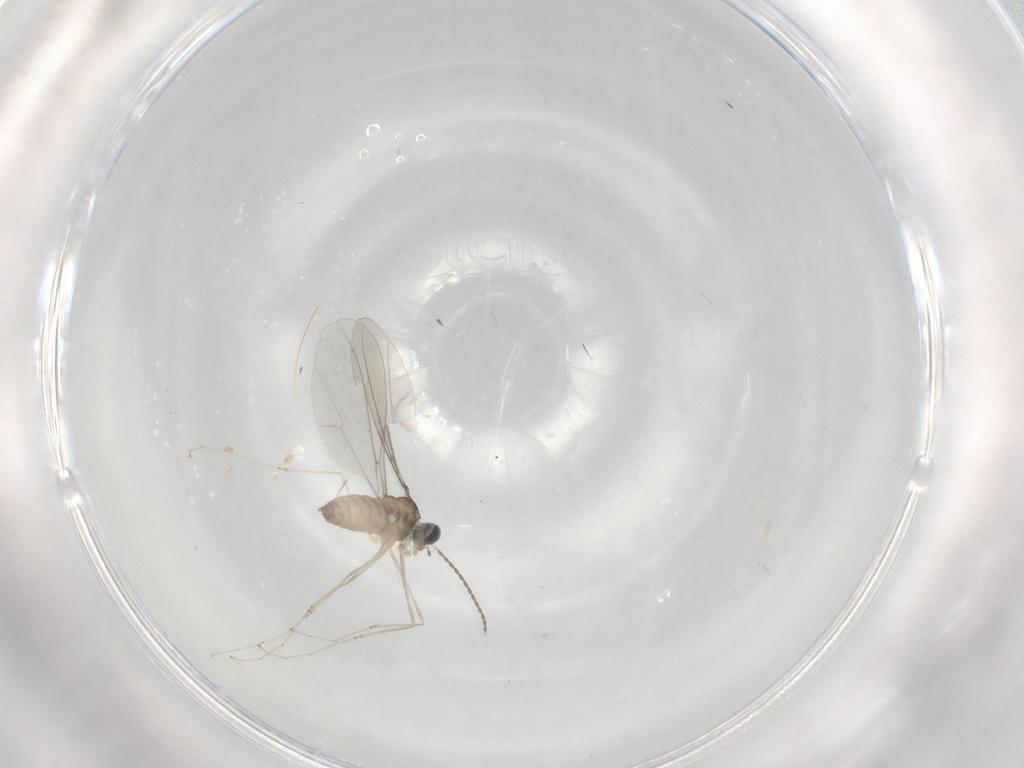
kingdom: Animalia
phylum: Arthropoda
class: Insecta
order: Diptera
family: Cecidomyiidae
